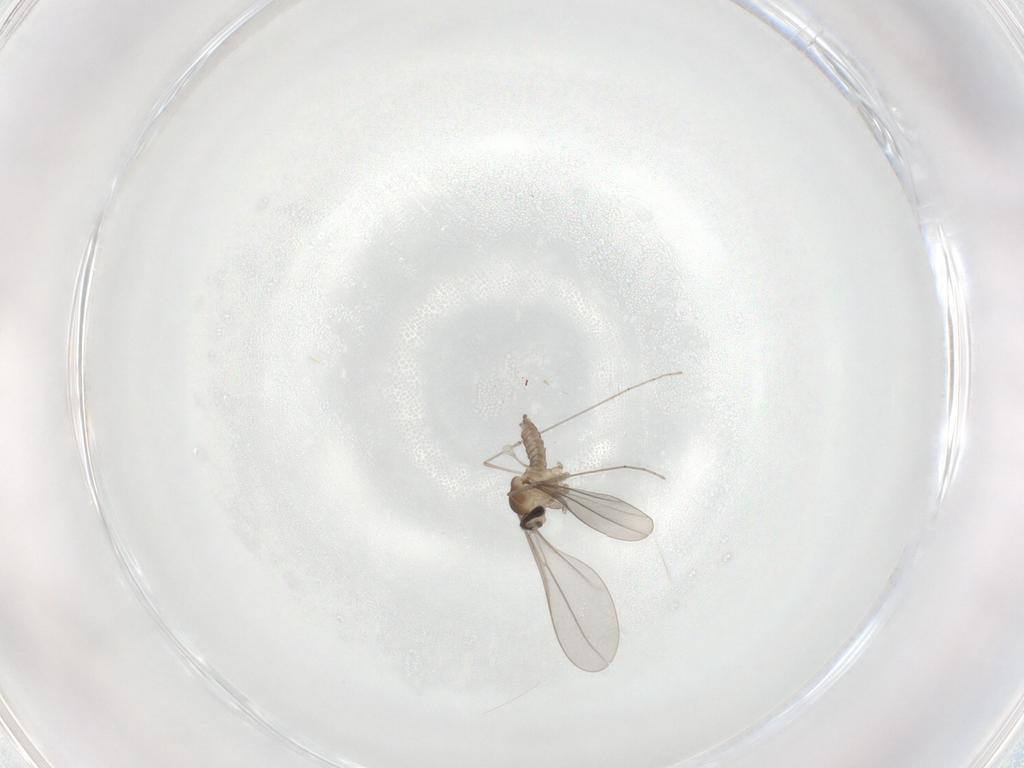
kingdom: Animalia
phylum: Arthropoda
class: Insecta
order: Diptera
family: Cecidomyiidae
